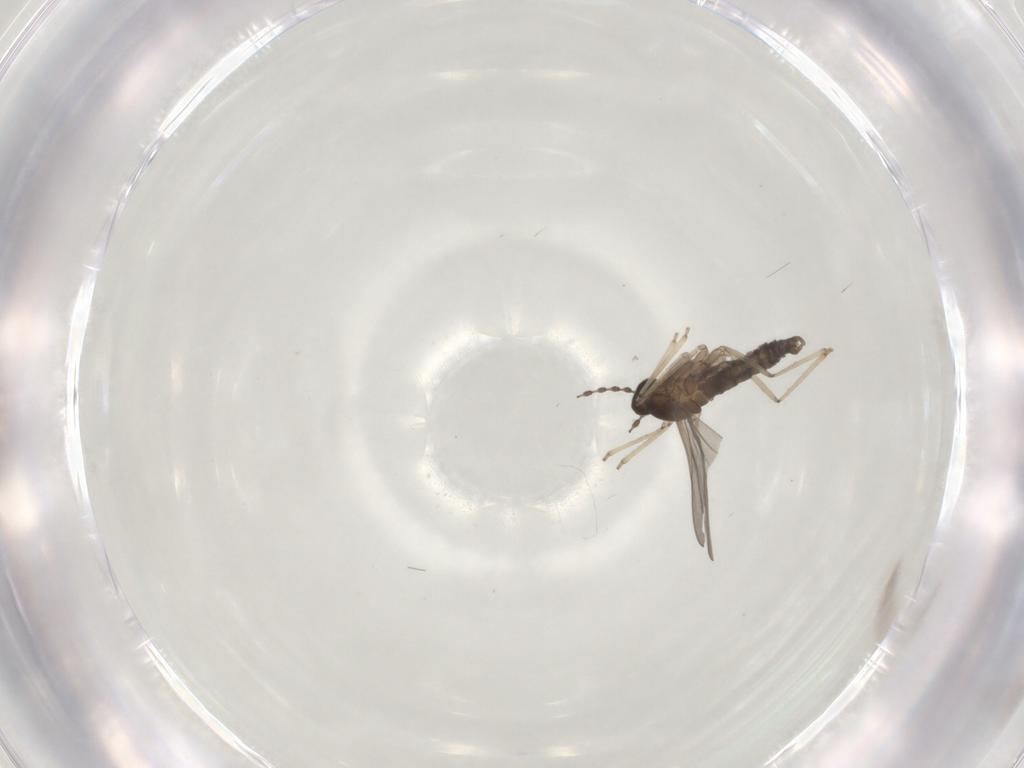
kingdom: Animalia
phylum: Arthropoda
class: Insecta
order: Diptera
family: Cecidomyiidae
